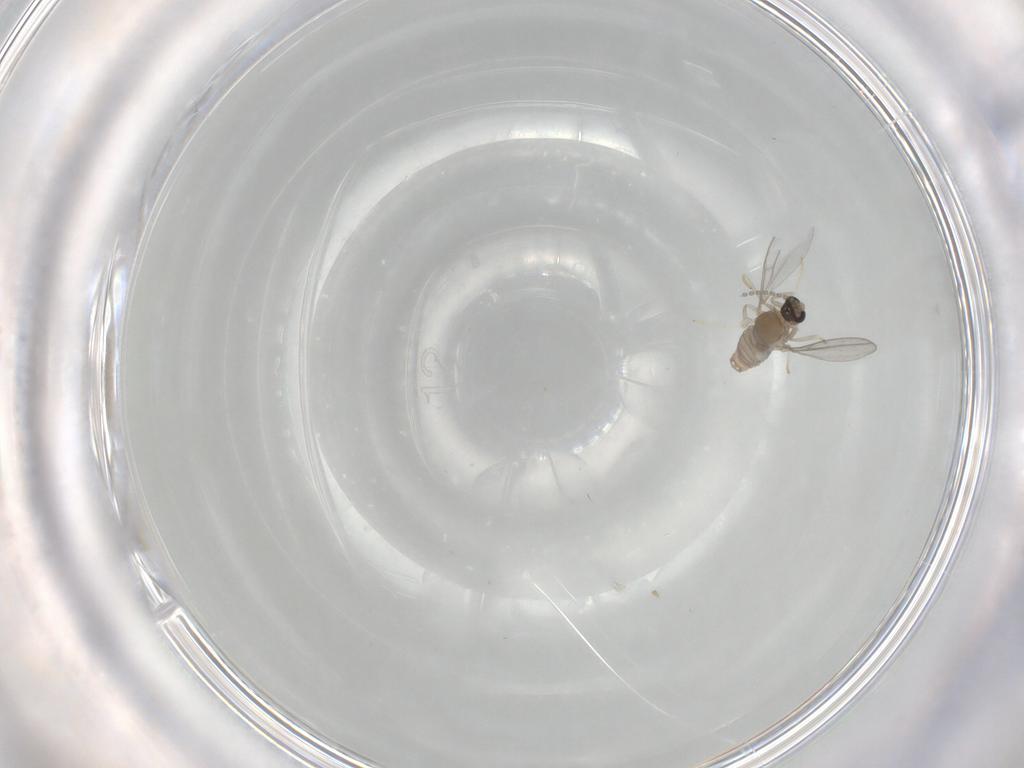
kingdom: Animalia
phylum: Arthropoda
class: Insecta
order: Diptera
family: Cecidomyiidae
